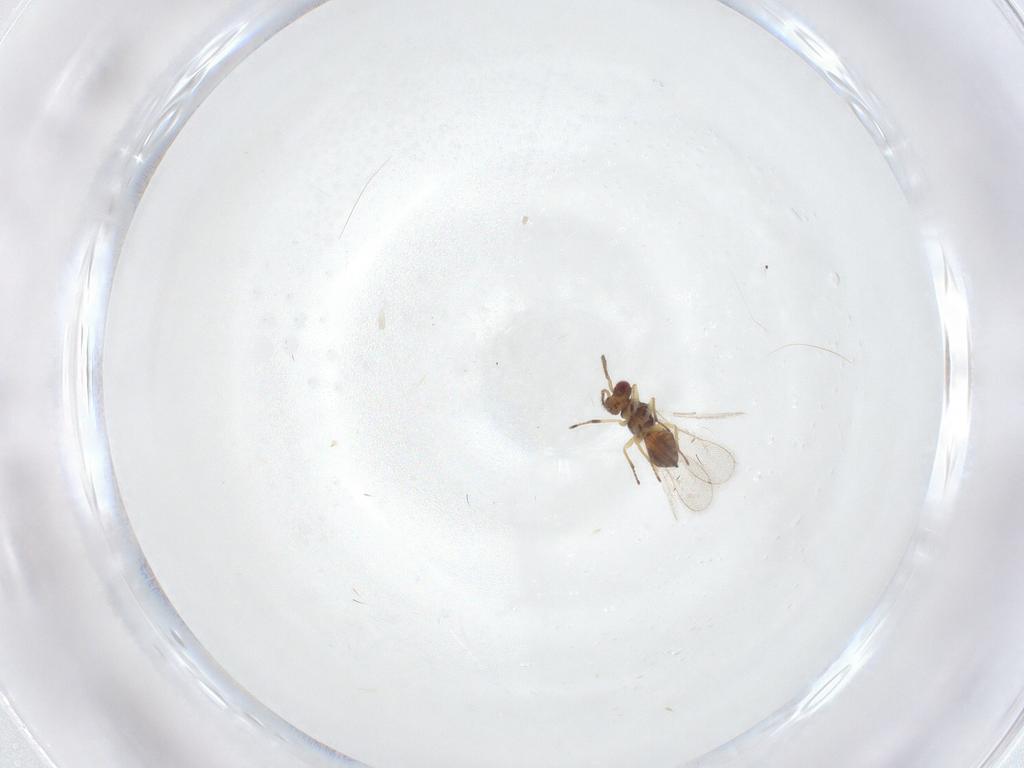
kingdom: Animalia
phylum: Arthropoda
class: Insecta
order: Hymenoptera
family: Eulophidae
